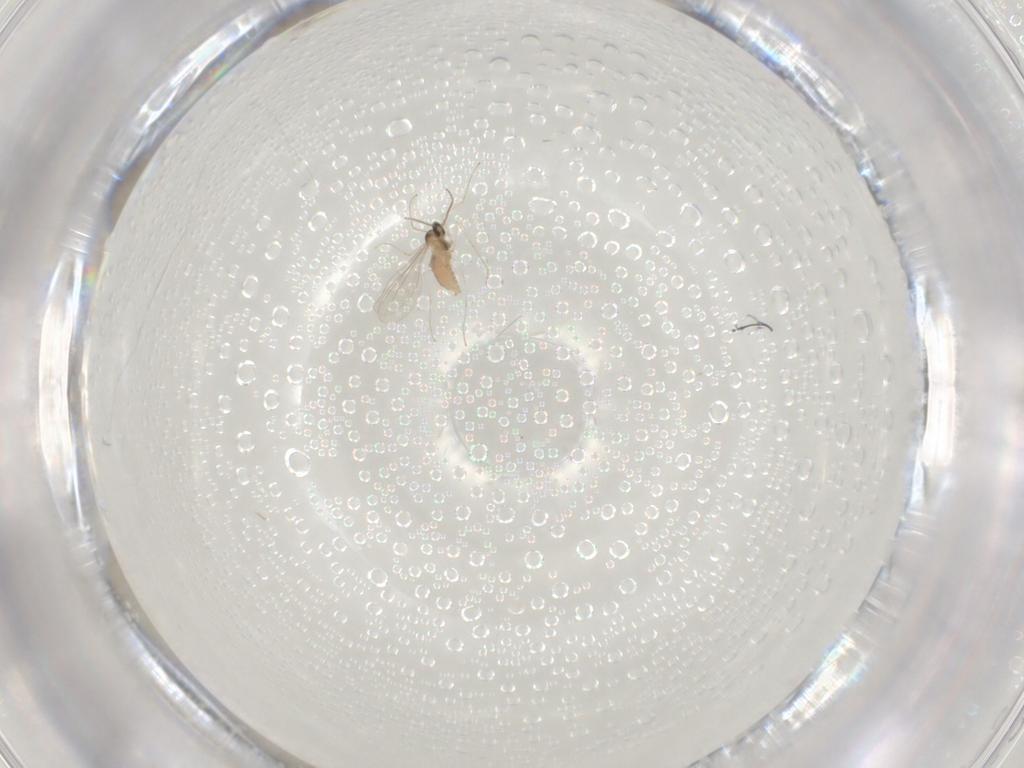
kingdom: Animalia
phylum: Arthropoda
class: Insecta
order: Diptera
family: Cecidomyiidae
